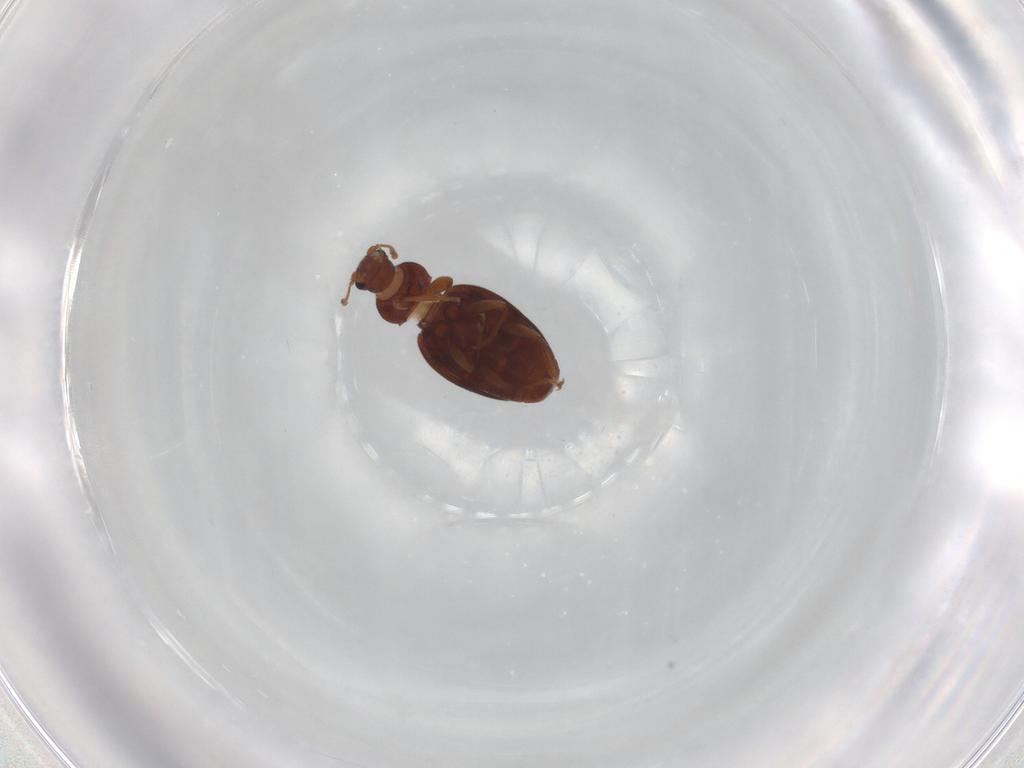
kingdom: Animalia
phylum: Arthropoda
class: Insecta
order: Coleoptera
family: Latridiidae
